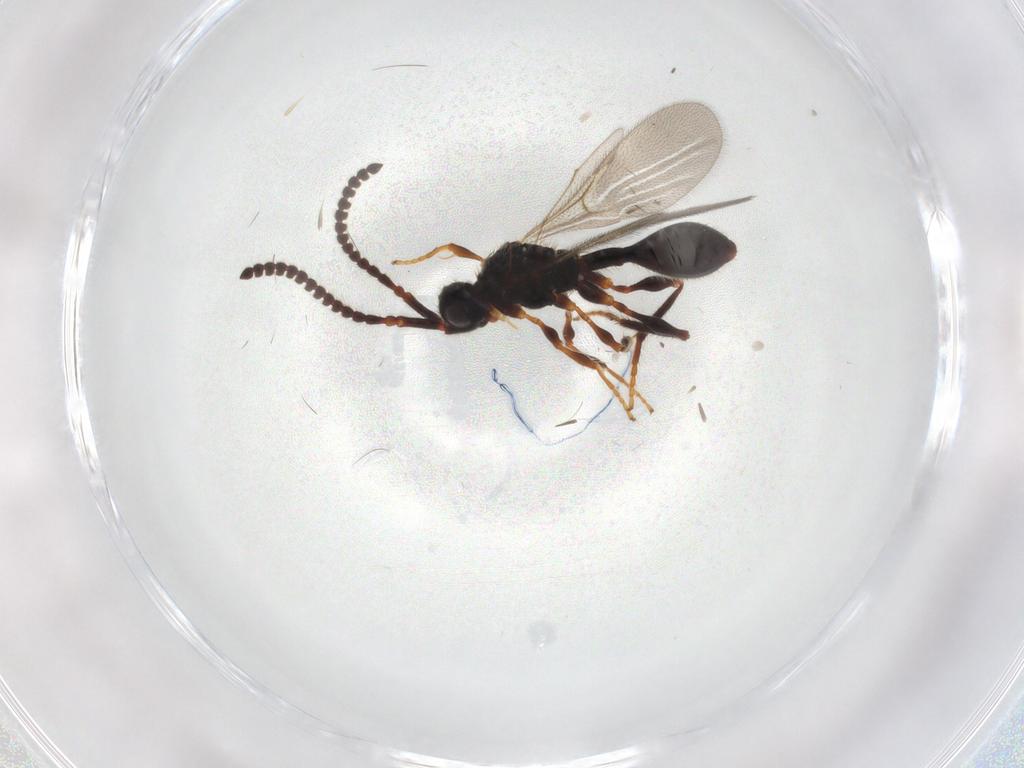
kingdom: Animalia
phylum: Arthropoda
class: Insecta
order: Hymenoptera
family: Diapriidae
